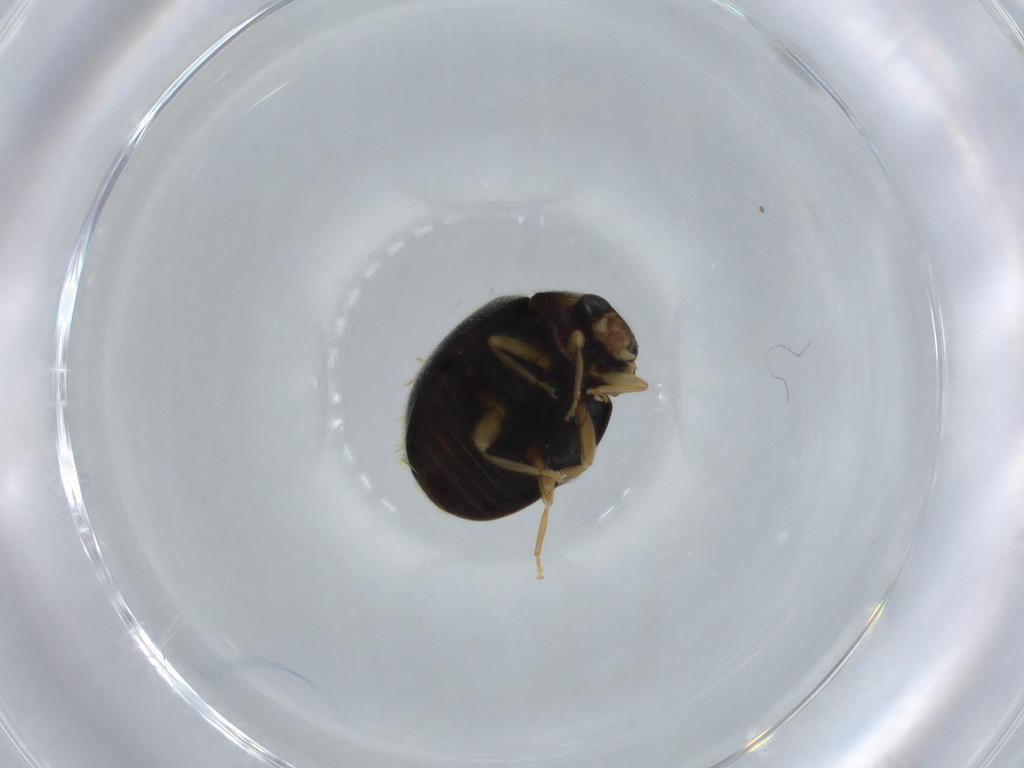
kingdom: Animalia
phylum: Arthropoda
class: Insecta
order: Coleoptera
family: Coccinellidae
